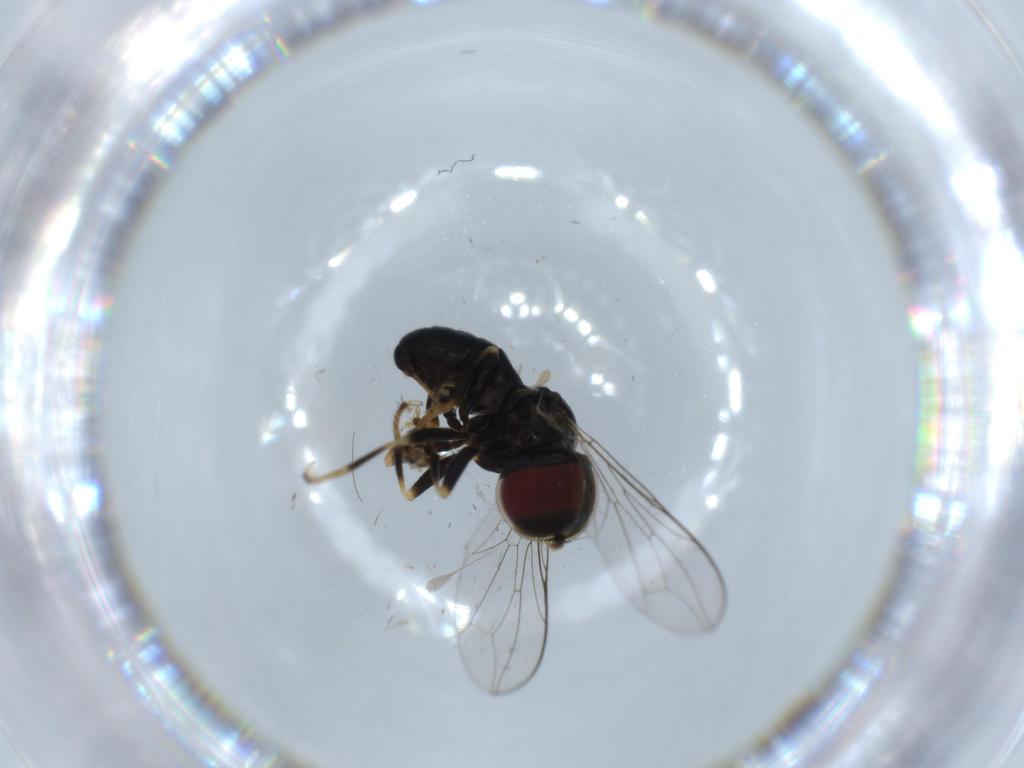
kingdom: Animalia
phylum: Arthropoda
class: Insecta
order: Diptera
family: Pipunculidae
